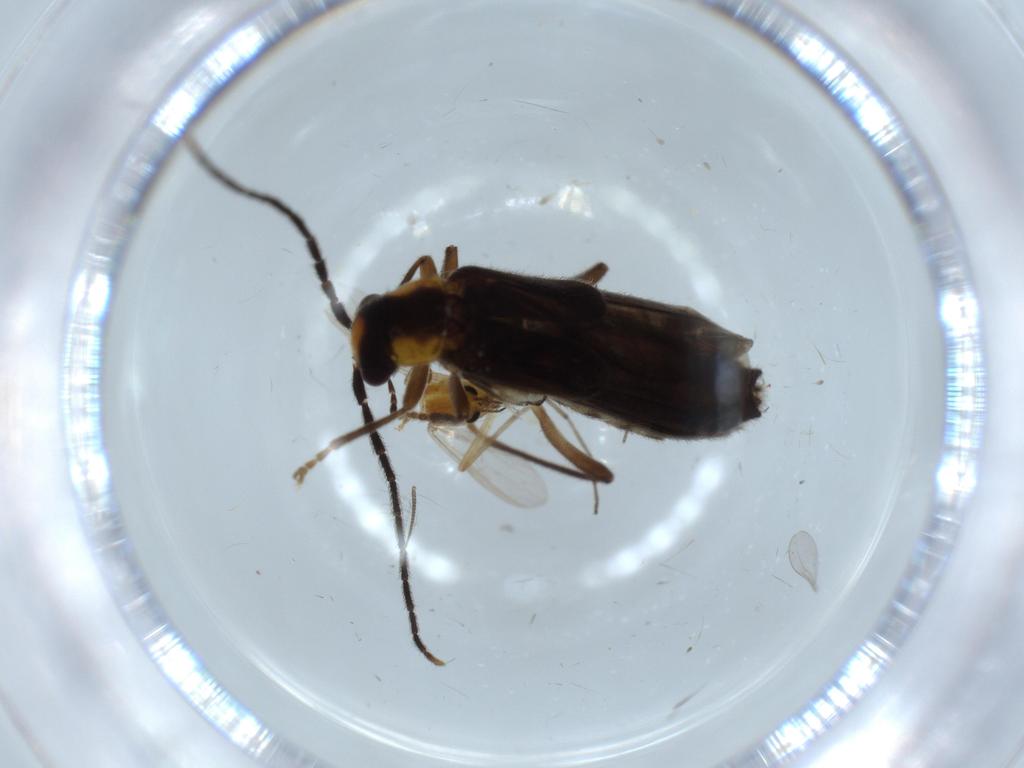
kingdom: Animalia
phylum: Arthropoda
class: Insecta
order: Coleoptera
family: Cantharidae
